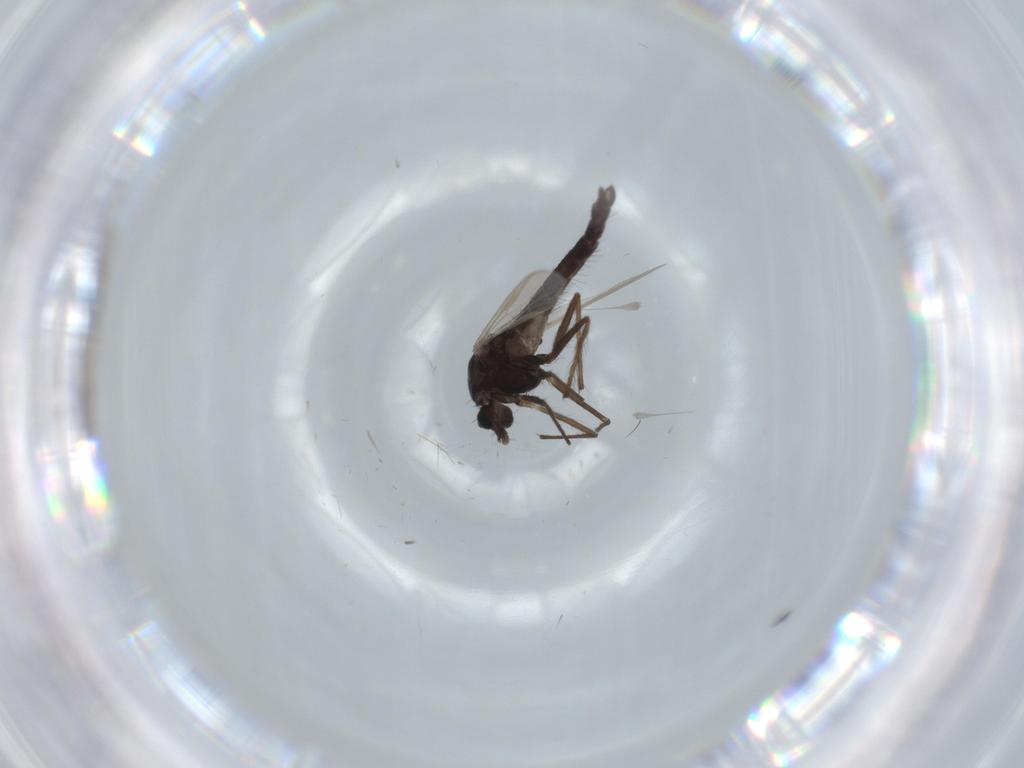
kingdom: Animalia
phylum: Arthropoda
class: Insecta
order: Diptera
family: Chironomidae
